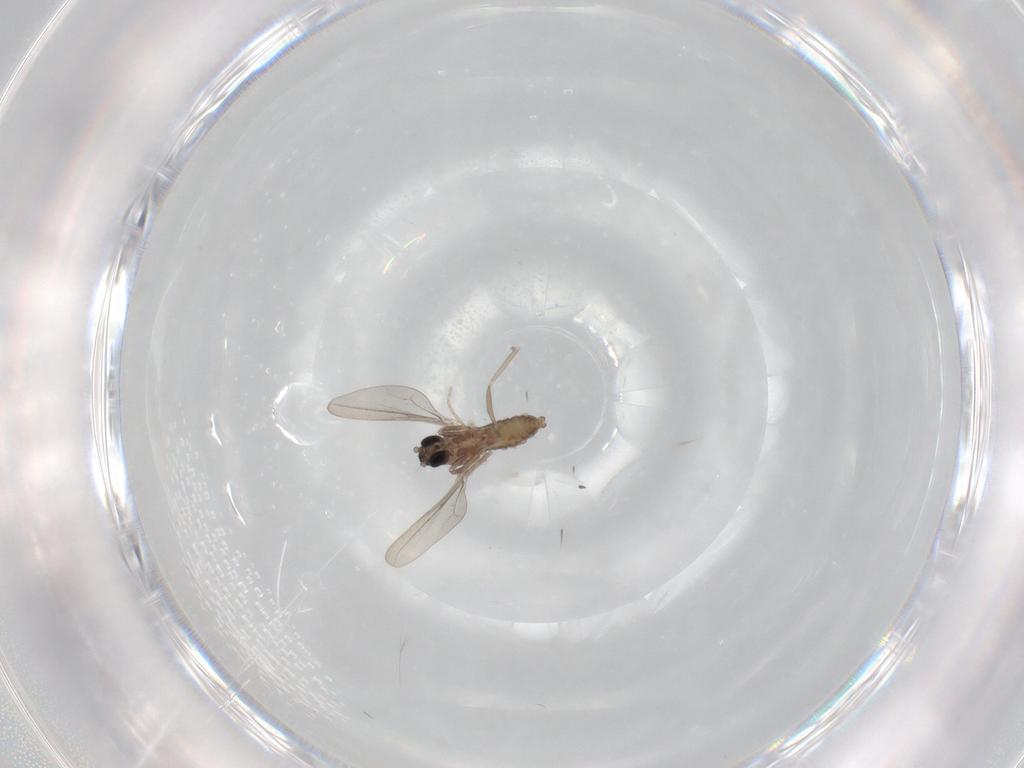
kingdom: Animalia
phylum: Arthropoda
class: Insecta
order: Diptera
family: Cecidomyiidae
